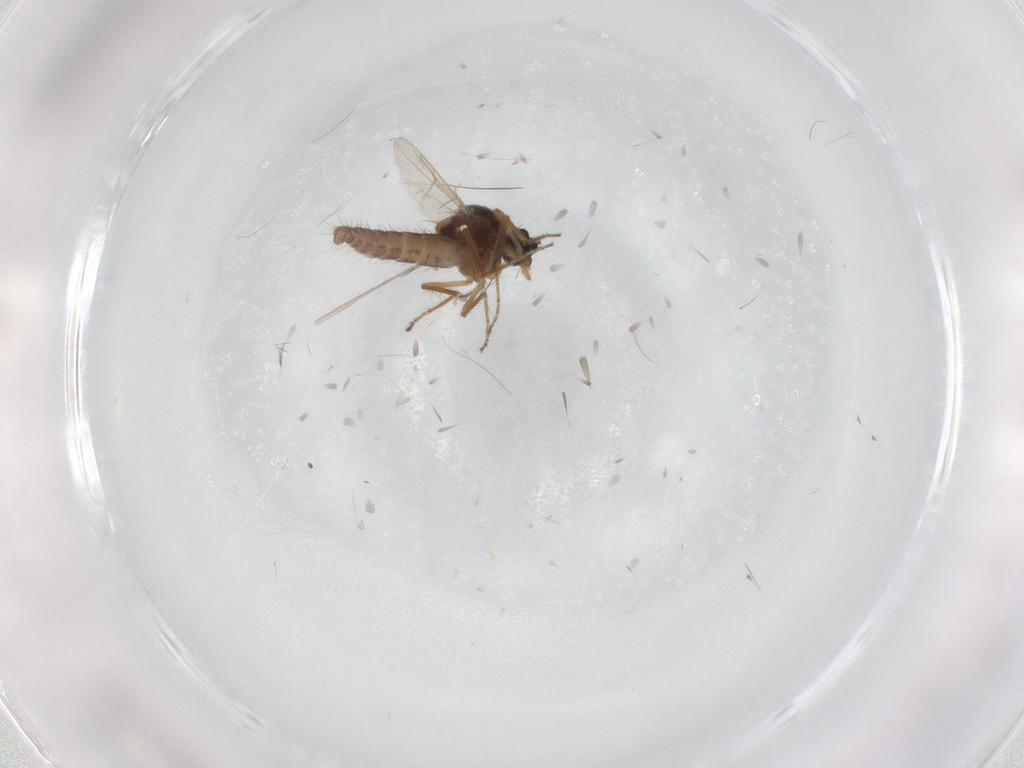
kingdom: Animalia
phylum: Arthropoda
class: Insecta
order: Diptera
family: Ceratopogonidae
